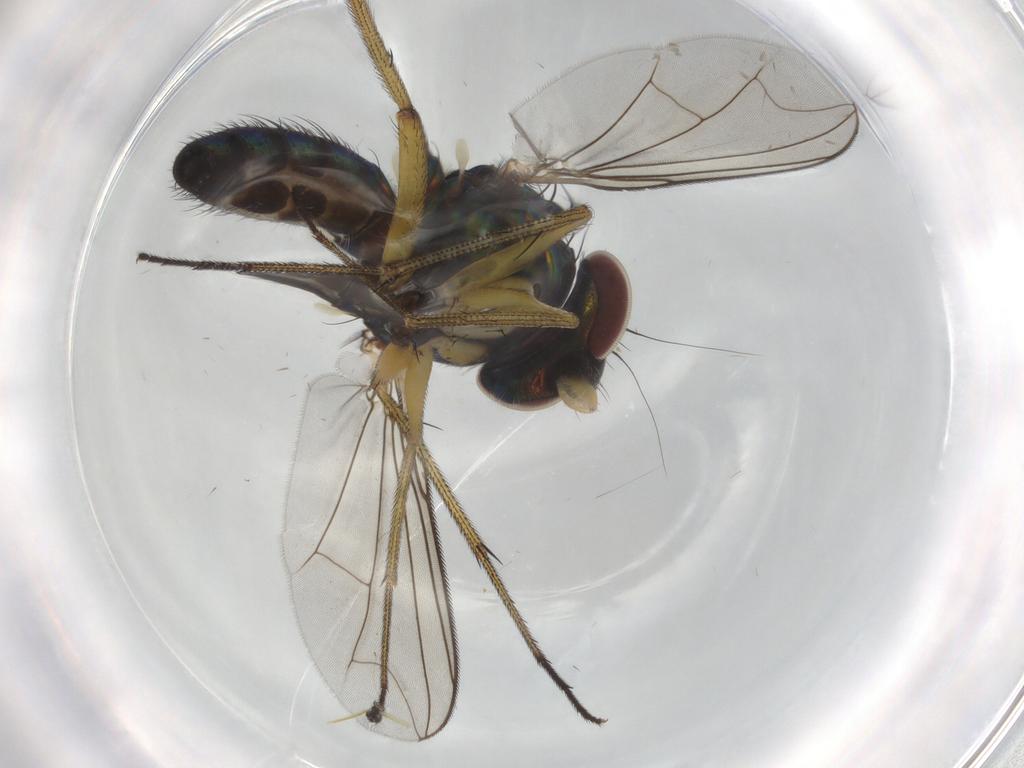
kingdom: Animalia
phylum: Arthropoda
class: Insecta
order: Diptera
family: Dolichopodidae
